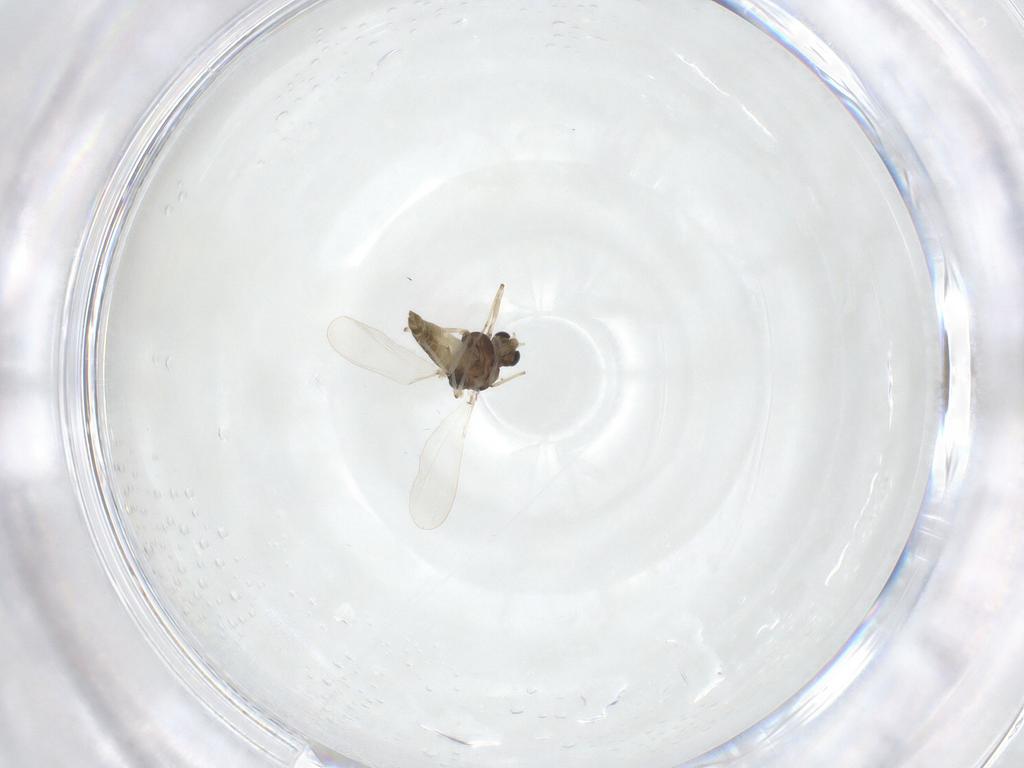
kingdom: Animalia
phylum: Arthropoda
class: Insecta
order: Diptera
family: Chironomidae
